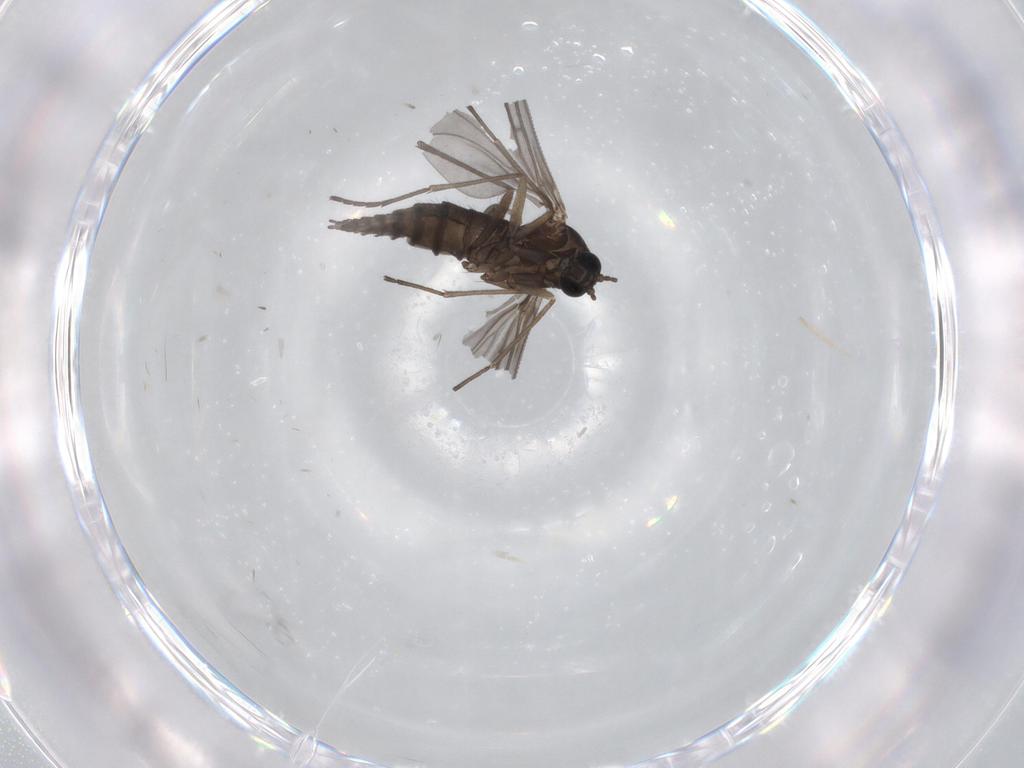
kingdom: Animalia
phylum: Arthropoda
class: Insecta
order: Diptera
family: Sciaridae
